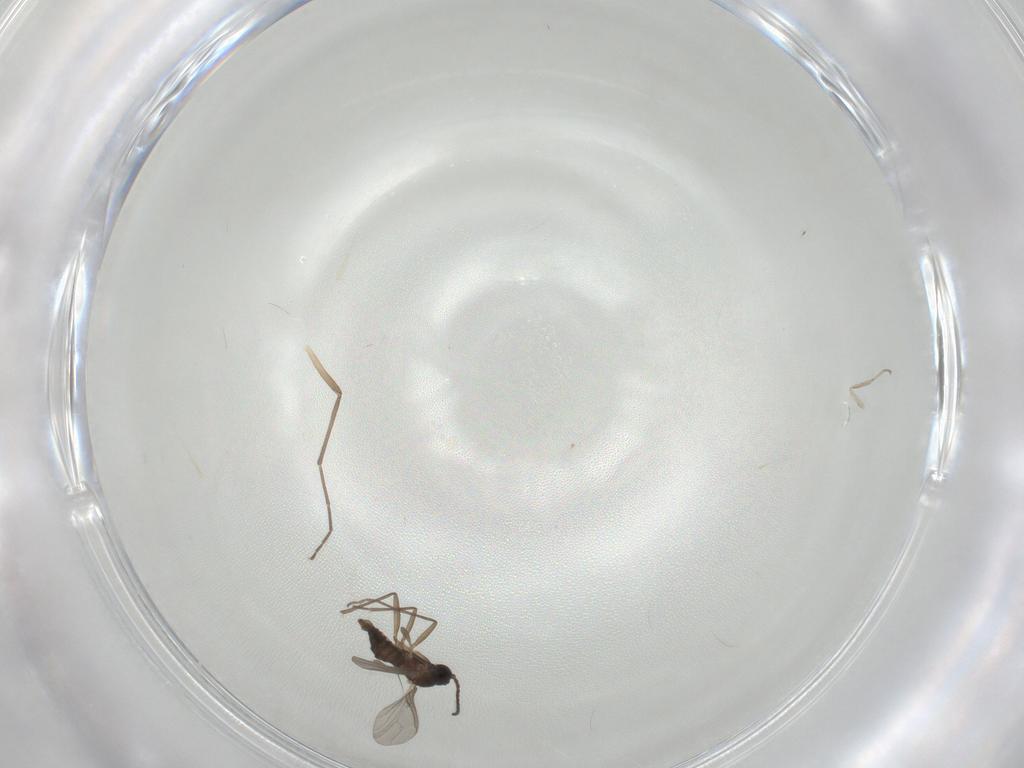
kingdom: Animalia
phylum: Arthropoda
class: Insecta
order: Diptera
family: Sciaridae
